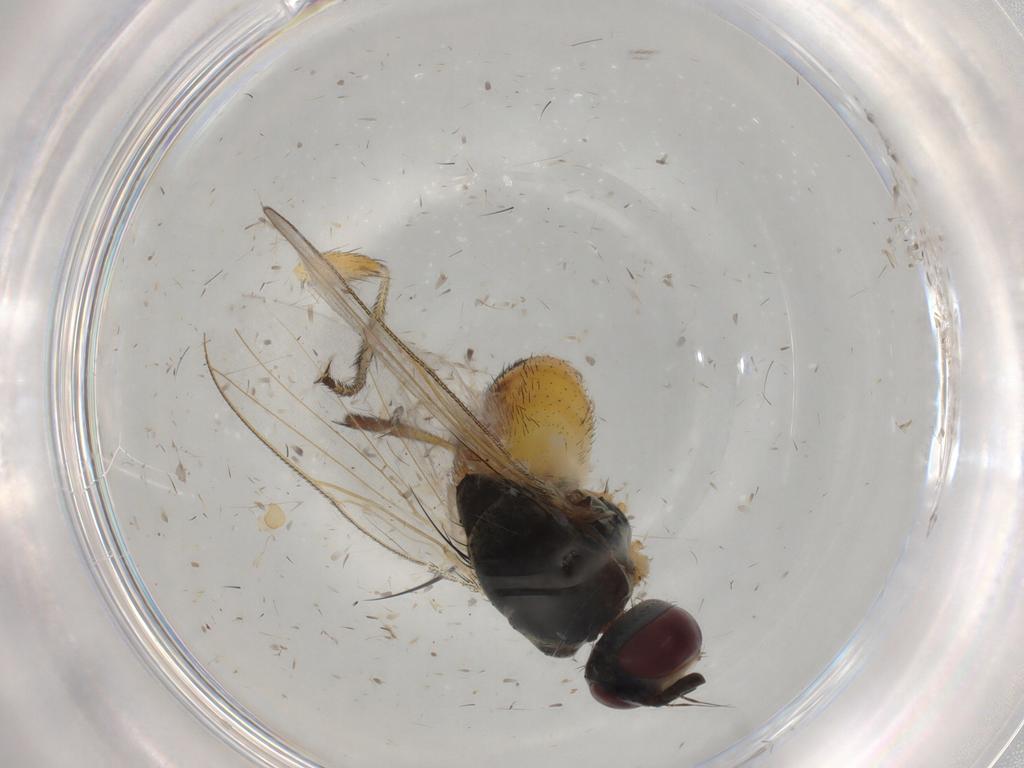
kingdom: Animalia
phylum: Arthropoda
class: Insecta
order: Diptera
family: Muscidae
